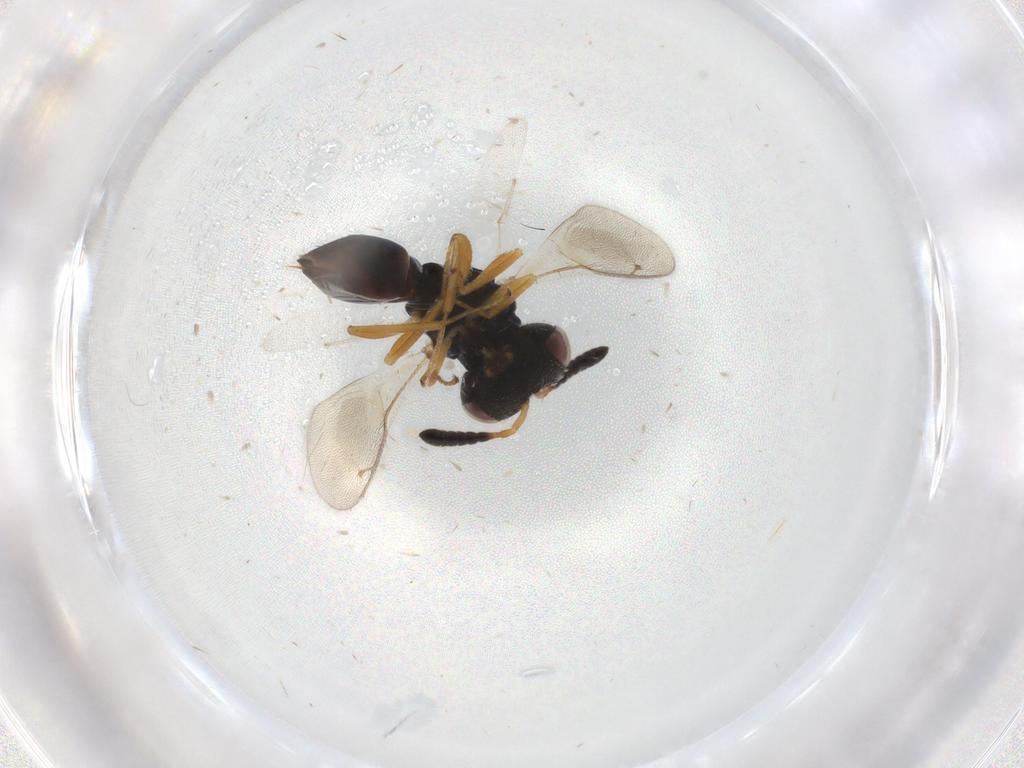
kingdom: Animalia
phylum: Arthropoda
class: Insecta
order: Hymenoptera
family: Pteromalidae
